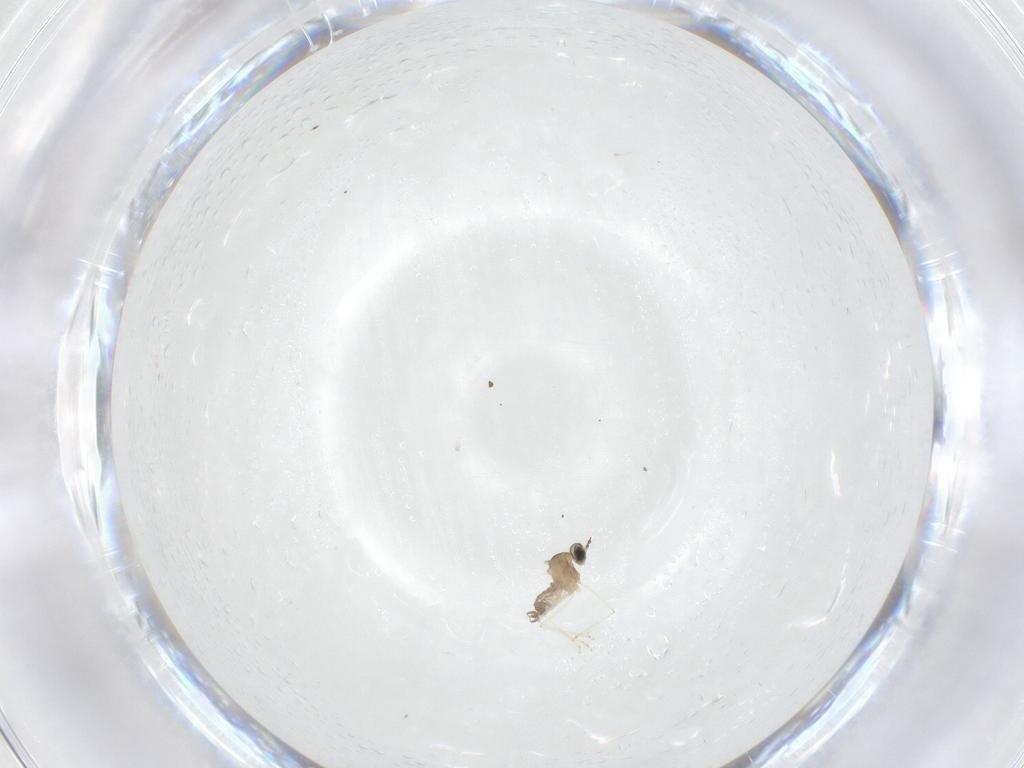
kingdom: Animalia
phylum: Arthropoda
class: Insecta
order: Diptera
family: Cecidomyiidae
